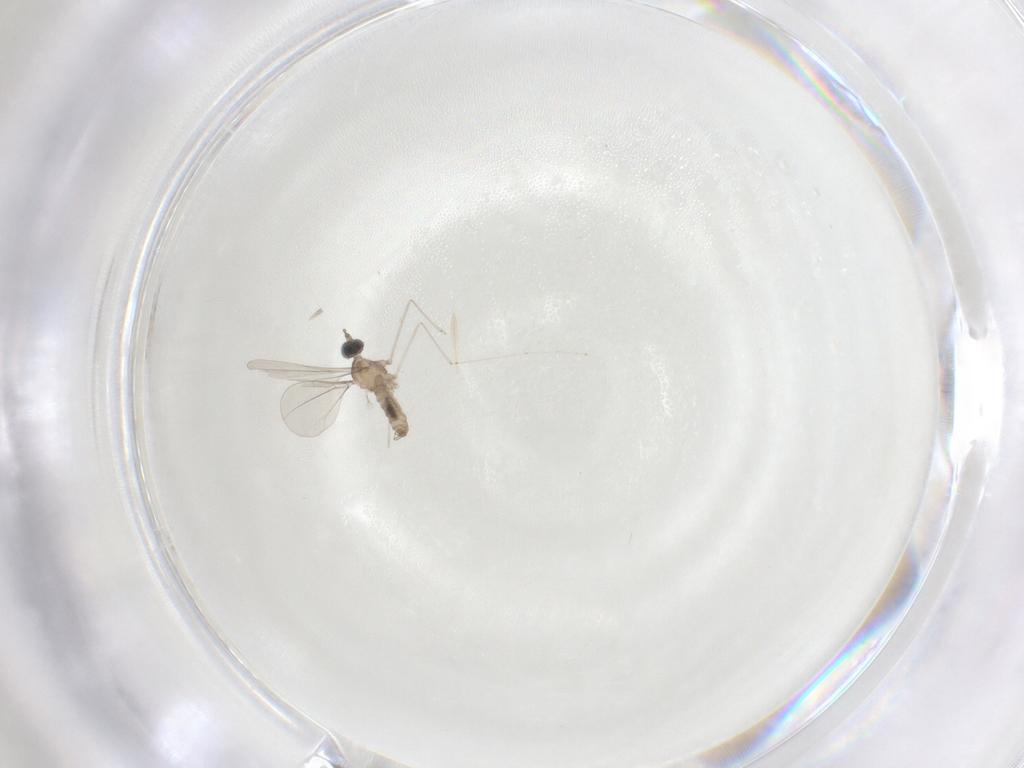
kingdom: Animalia
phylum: Arthropoda
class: Insecta
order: Diptera
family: Cecidomyiidae
